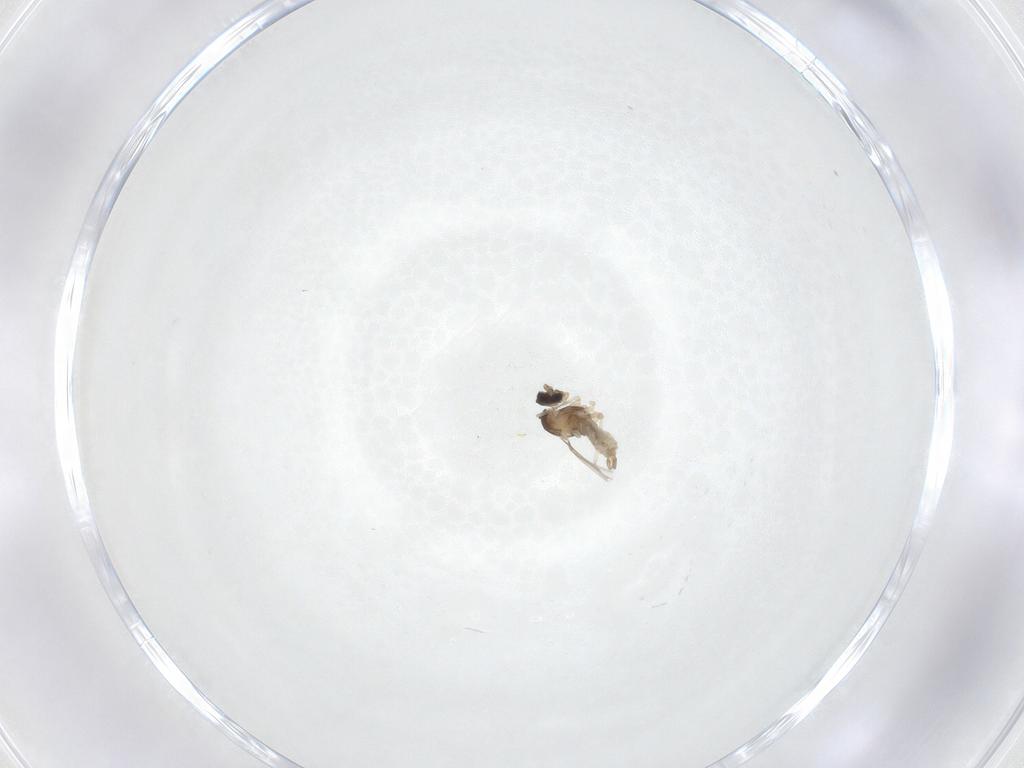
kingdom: Animalia
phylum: Arthropoda
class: Insecta
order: Diptera
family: Cecidomyiidae
